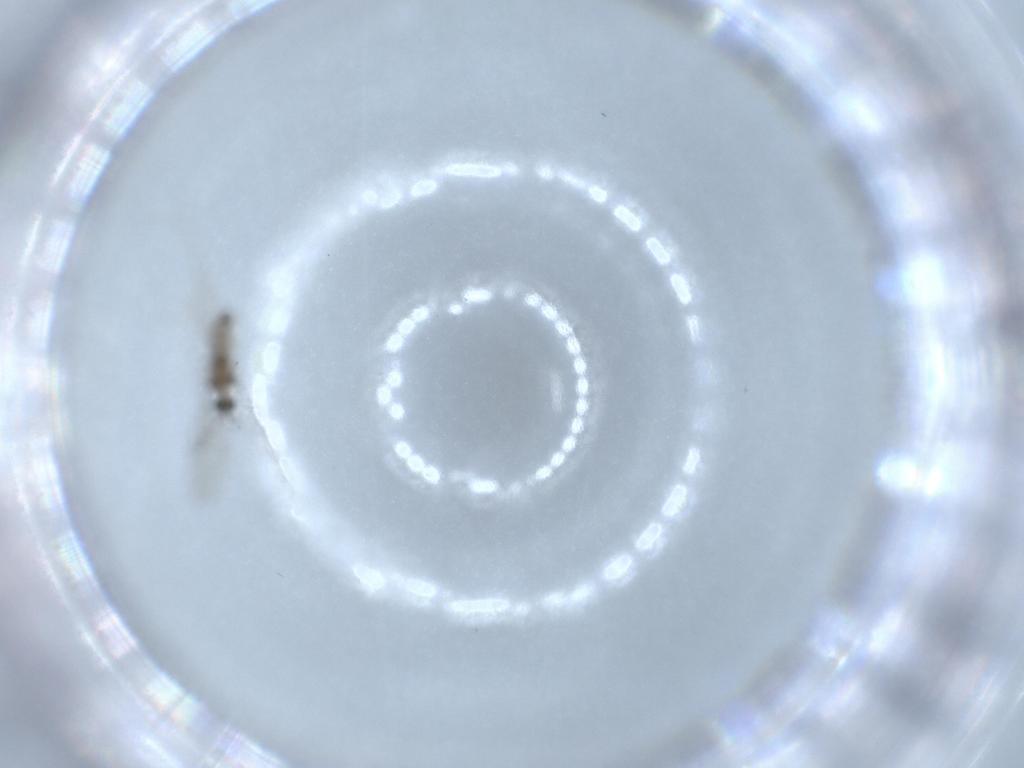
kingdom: Animalia
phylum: Arthropoda
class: Insecta
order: Diptera
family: Cecidomyiidae
